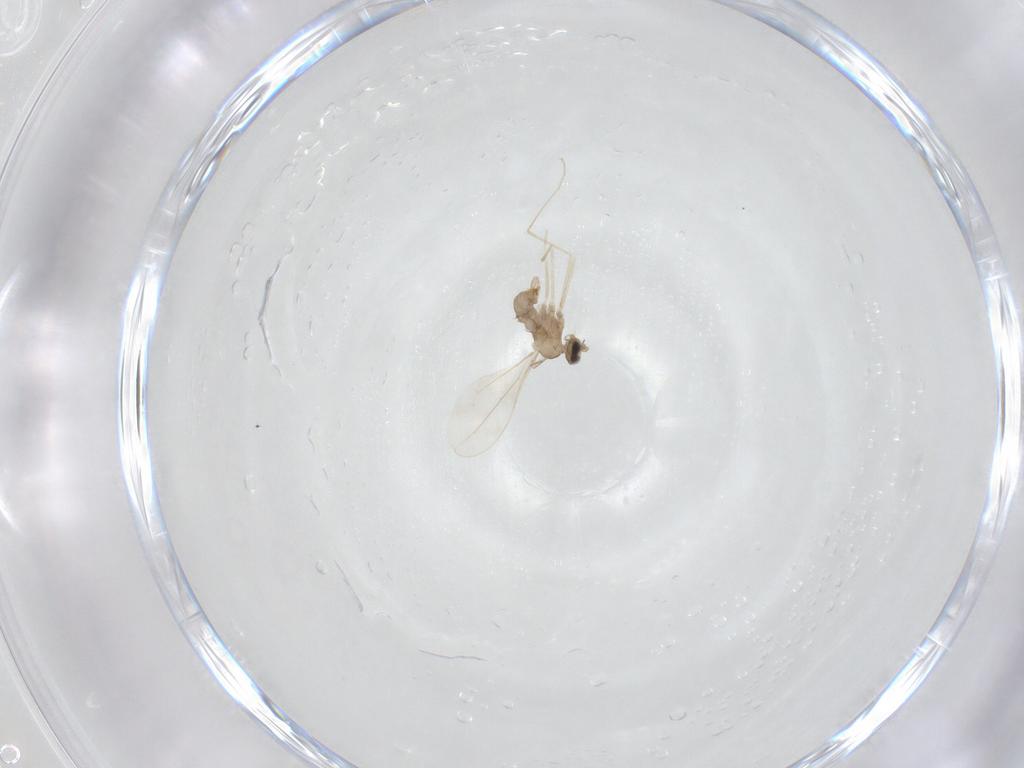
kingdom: Animalia
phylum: Arthropoda
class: Insecta
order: Diptera
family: Cecidomyiidae
